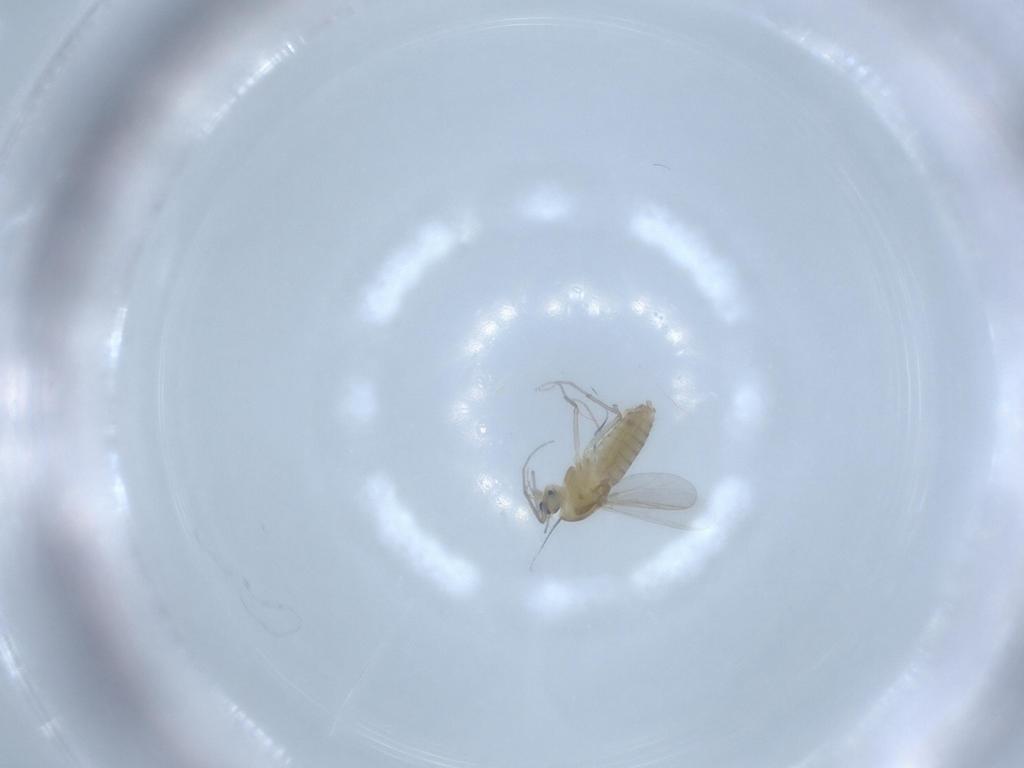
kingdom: Animalia
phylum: Arthropoda
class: Insecta
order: Diptera
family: Chironomidae
